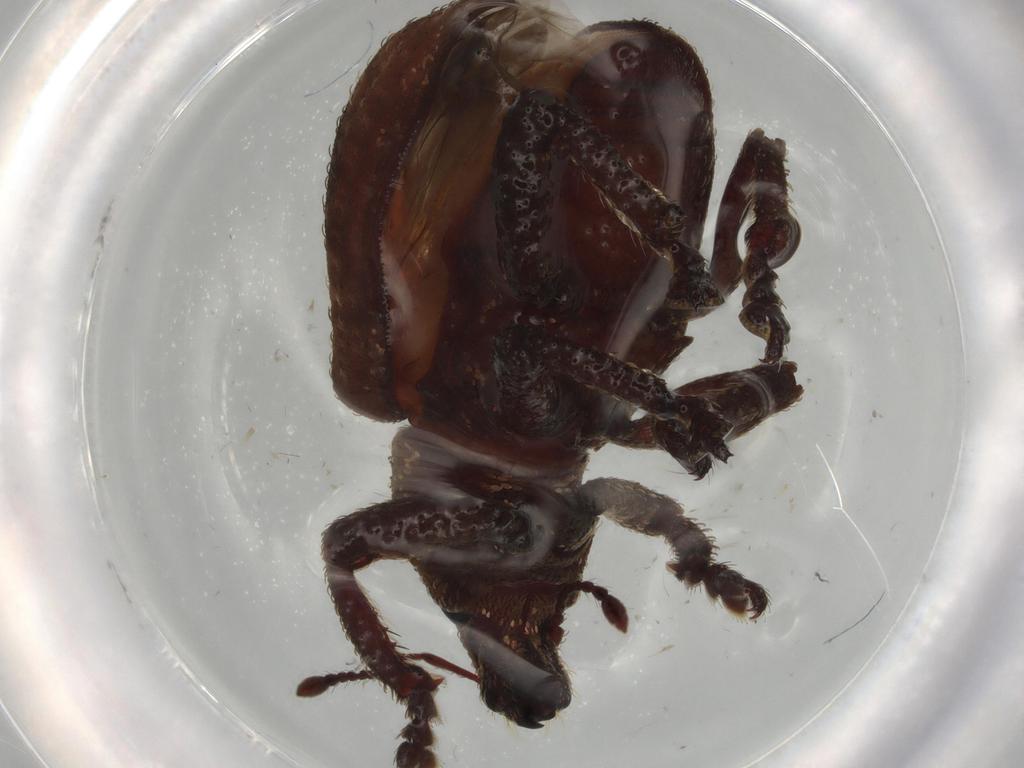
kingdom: Animalia
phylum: Arthropoda
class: Insecta
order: Coleoptera
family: Curculionidae
